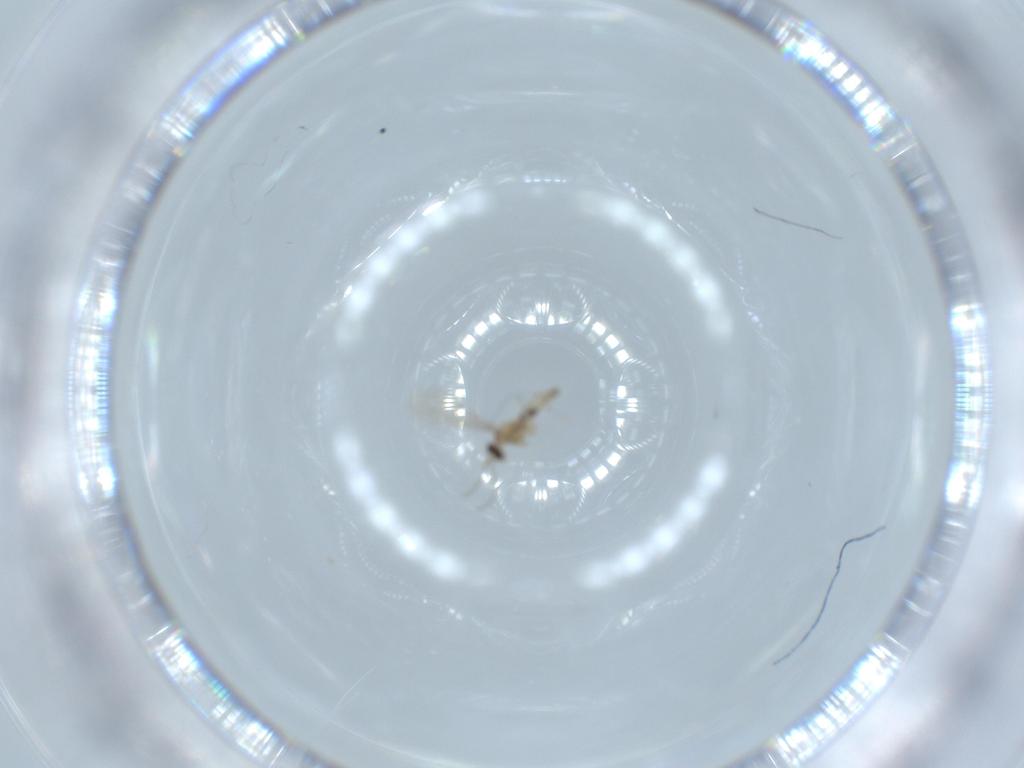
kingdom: Animalia
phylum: Arthropoda
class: Insecta
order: Diptera
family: Cecidomyiidae
